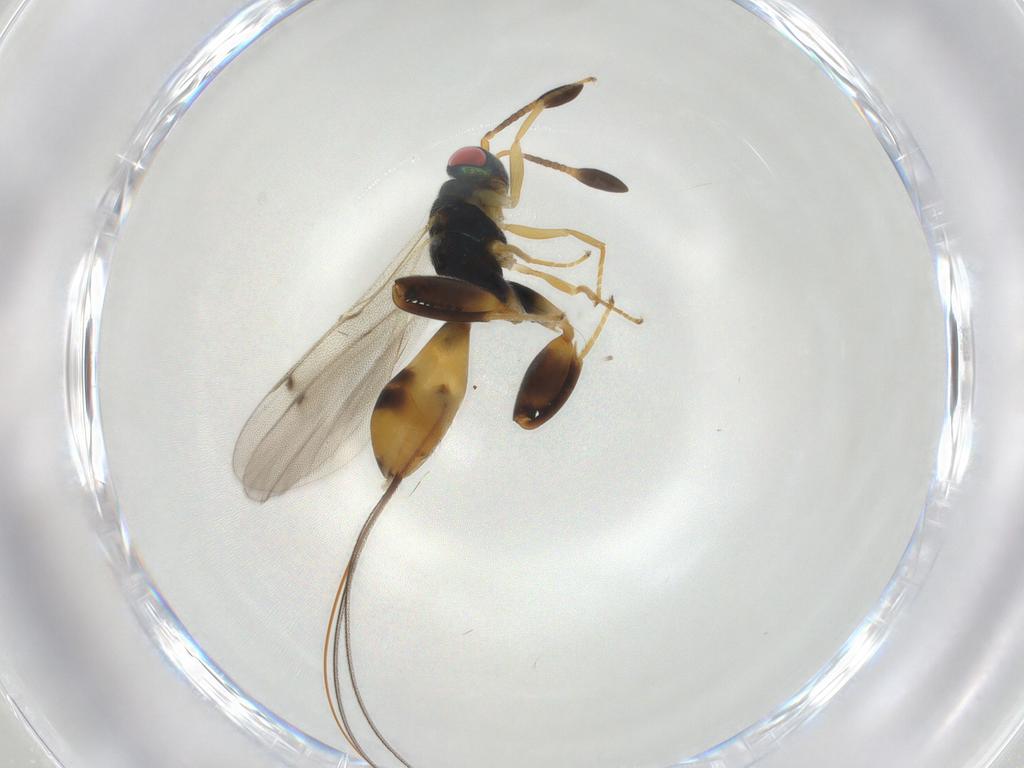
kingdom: Animalia
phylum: Arthropoda
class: Insecta
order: Hymenoptera
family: Torymidae
